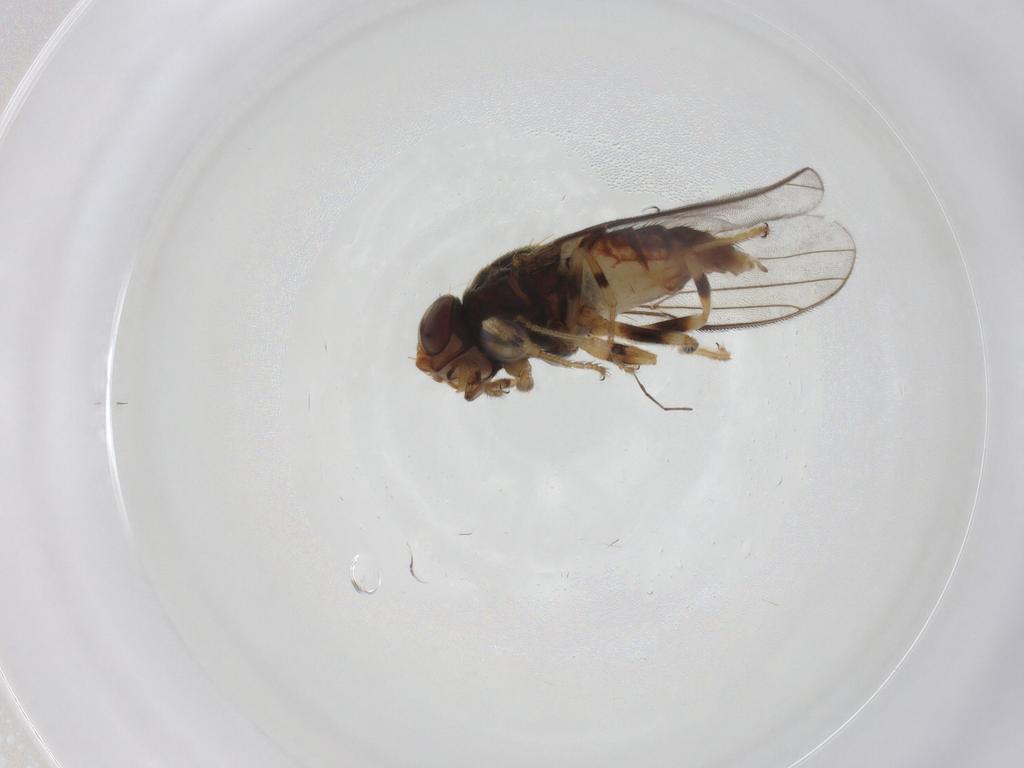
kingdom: Animalia
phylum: Arthropoda
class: Insecta
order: Diptera
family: Chloropidae
